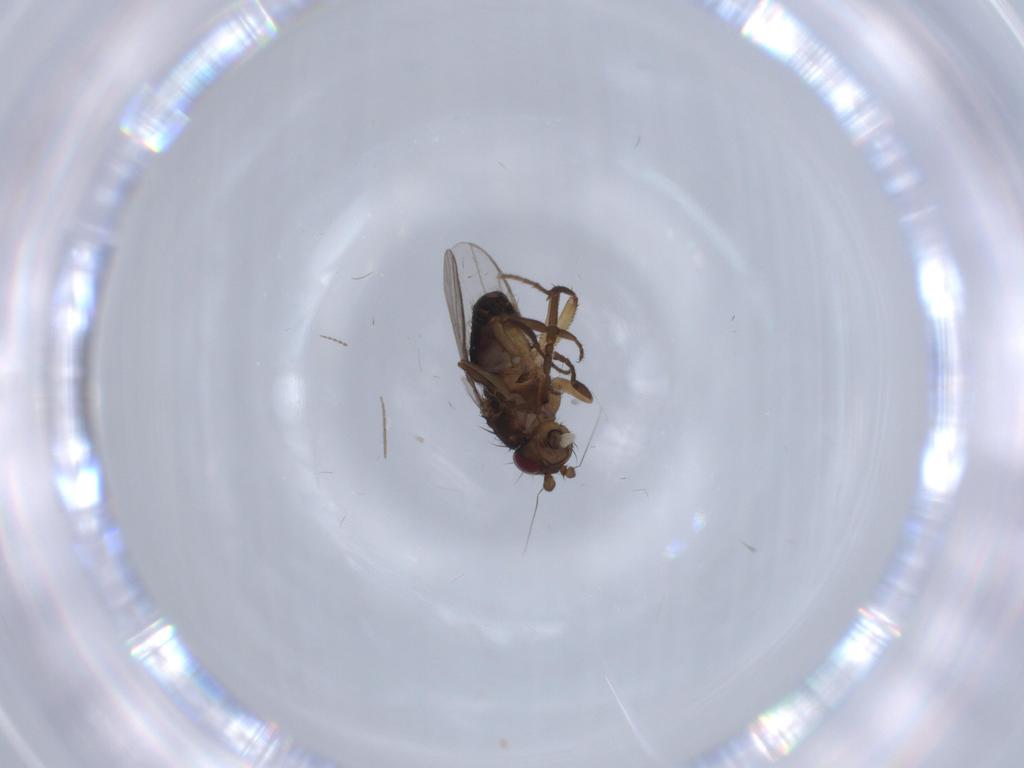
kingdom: Animalia
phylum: Arthropoda
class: Insecta
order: Diptera
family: Sphaeroceridae
